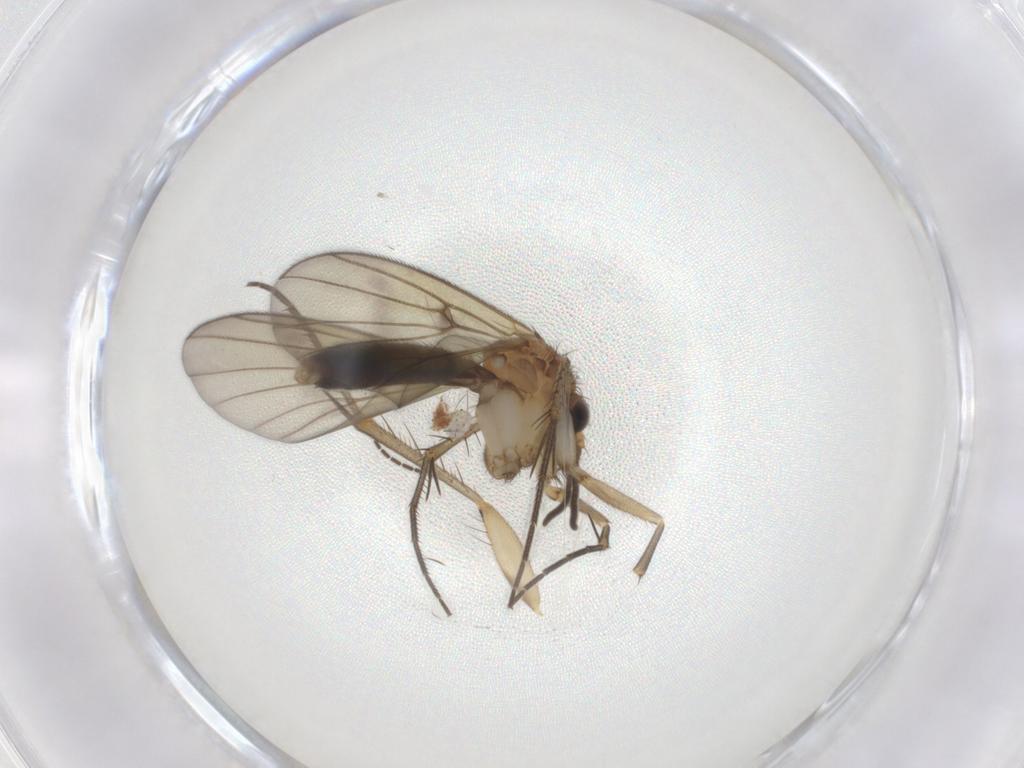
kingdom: Animalia
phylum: Arthropoda
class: Insecta
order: Diptera
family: Mycetophilidae
